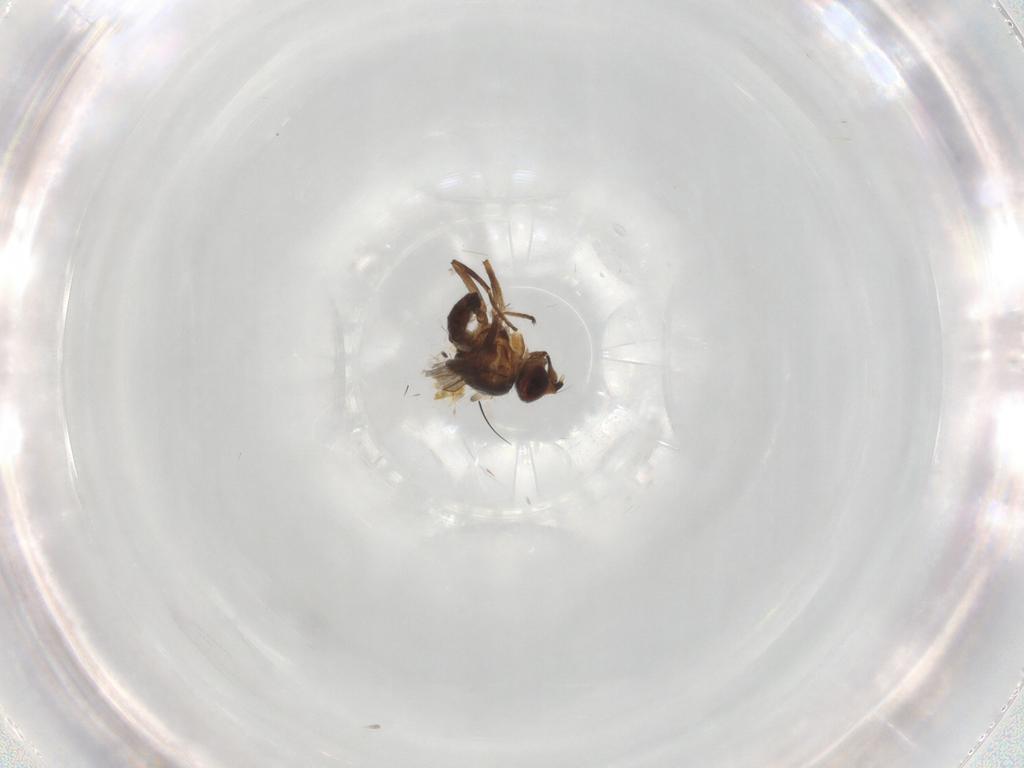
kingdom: Animalia
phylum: Arthropoda
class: Insecta
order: Diptera
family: Chloropidae
